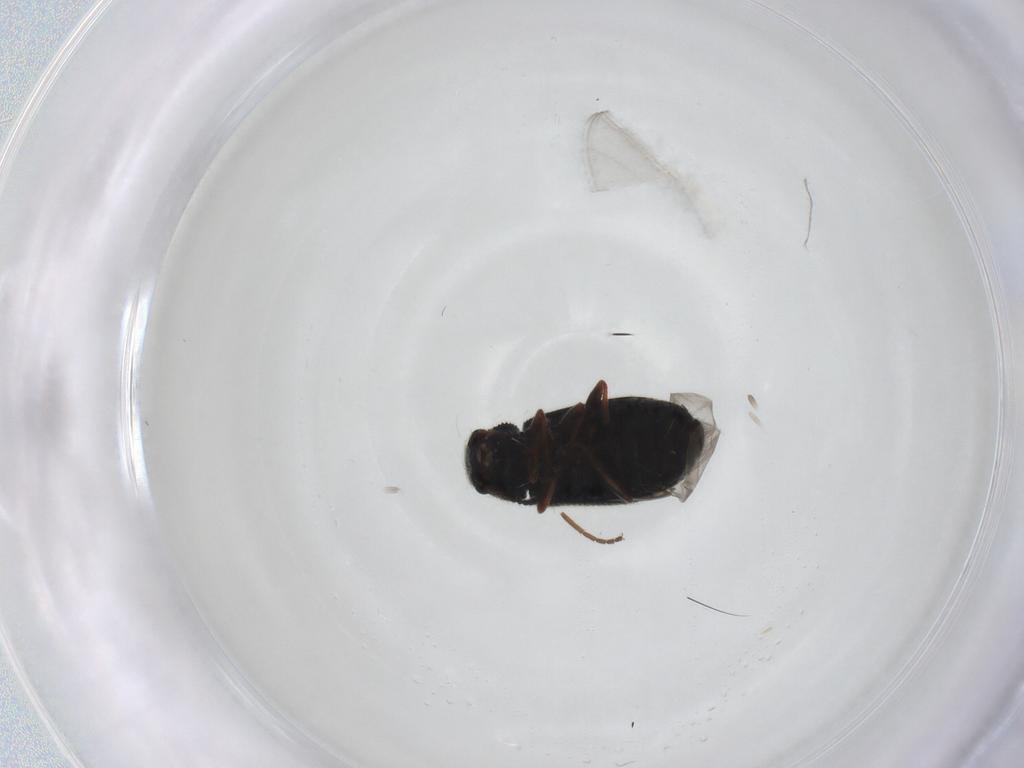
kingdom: Animalia
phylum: Arthropoda
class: Insecta
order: Coleoptera
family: Melyridae
